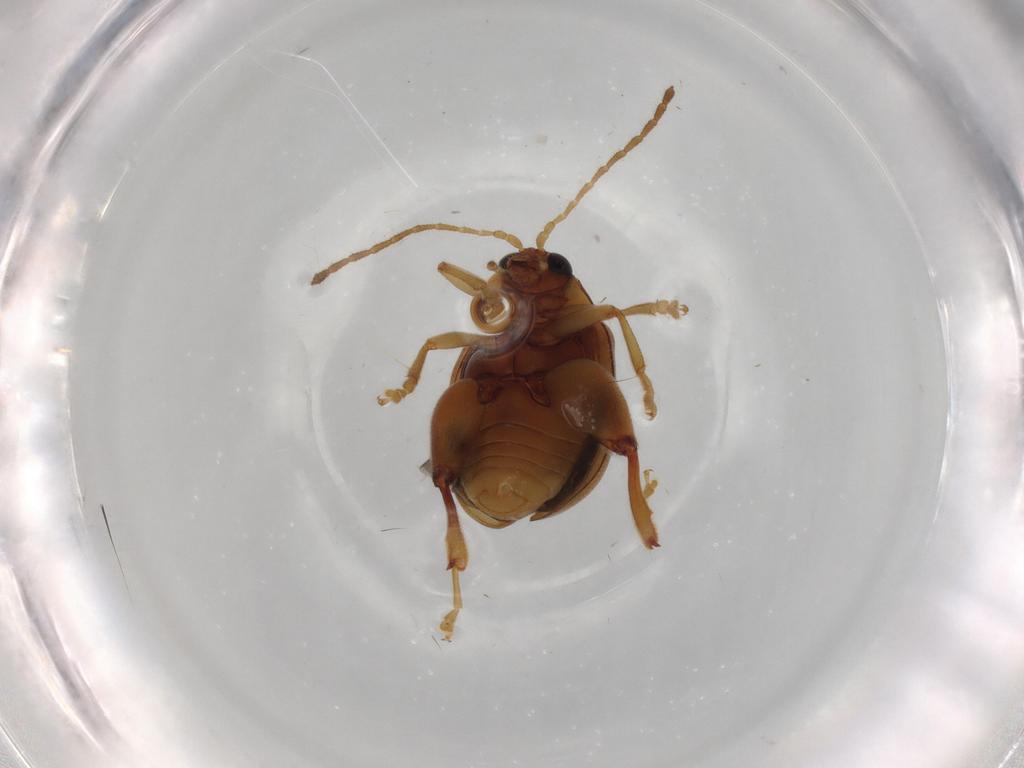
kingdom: Animalia
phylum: Arthropoda
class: Insecta
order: Coleoptera
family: Chrysomelidae
